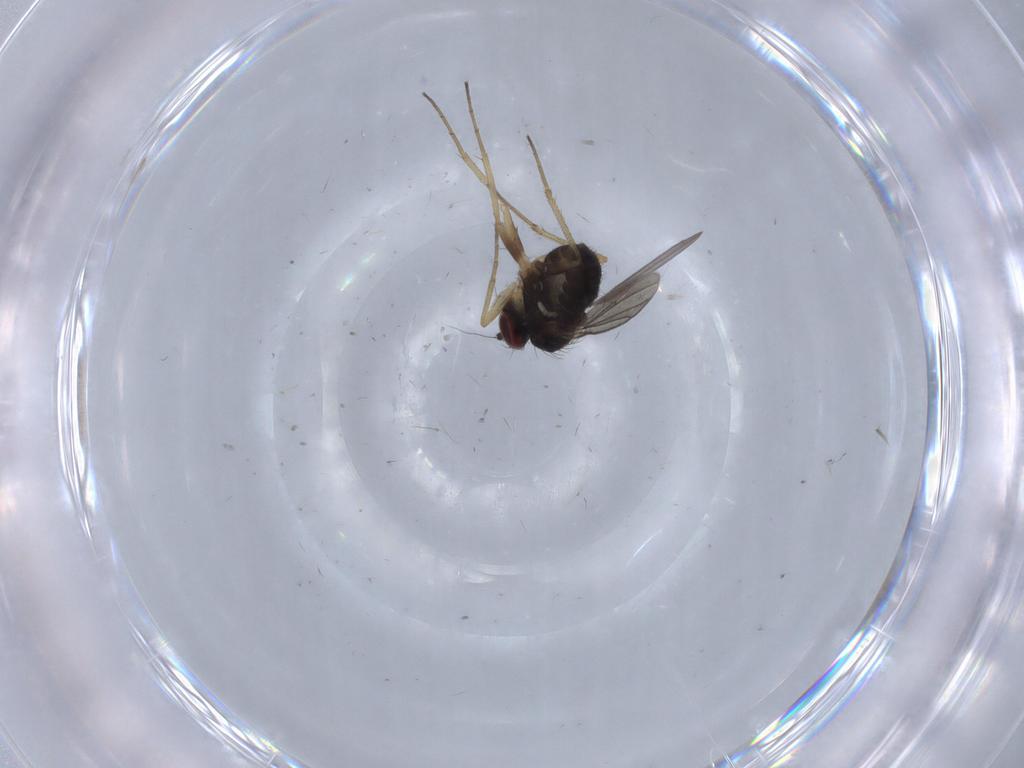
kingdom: Animalia
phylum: Arthropoda
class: Insecta
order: Diptera
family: Dolichopodidae
